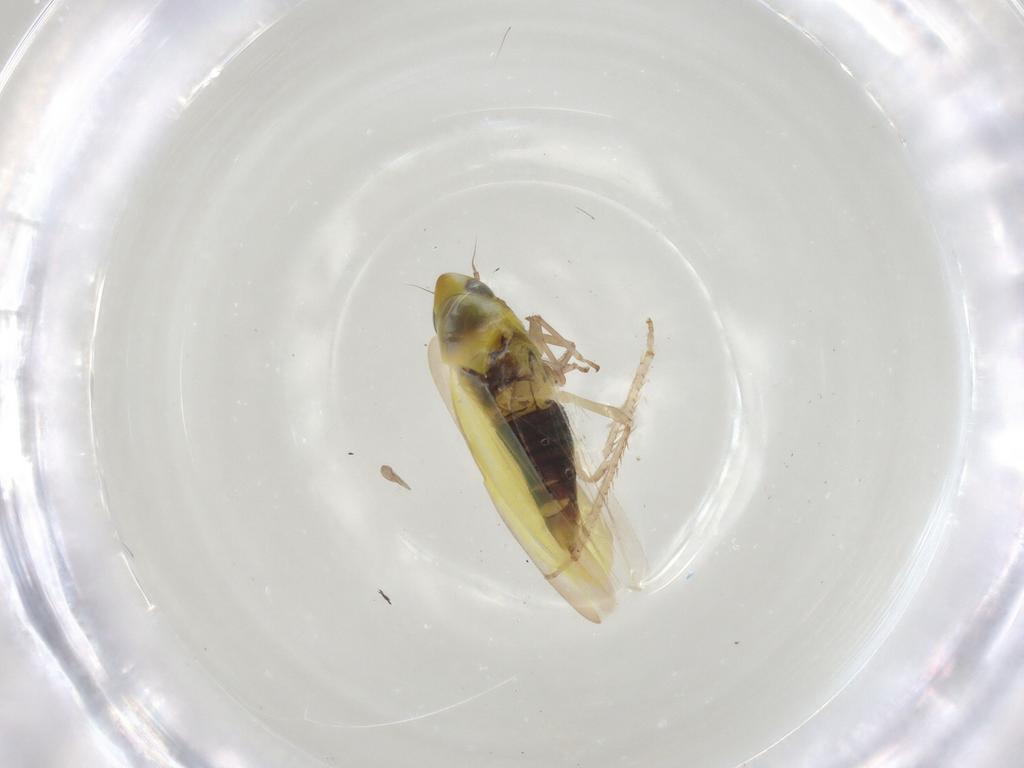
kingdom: Animalia
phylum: Arthropoda
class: Insecta
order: Hemiptera
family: Cicadellidae
